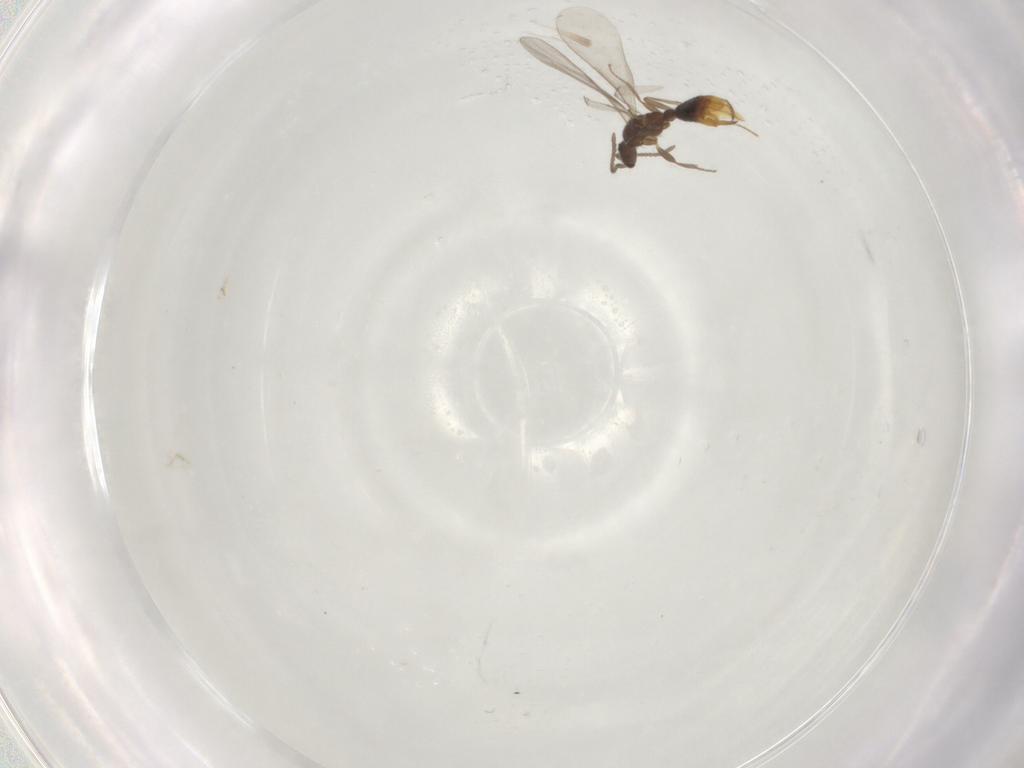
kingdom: Animalia
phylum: Arthropoda
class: Insecta
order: Hymenoptera
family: Formicidae
